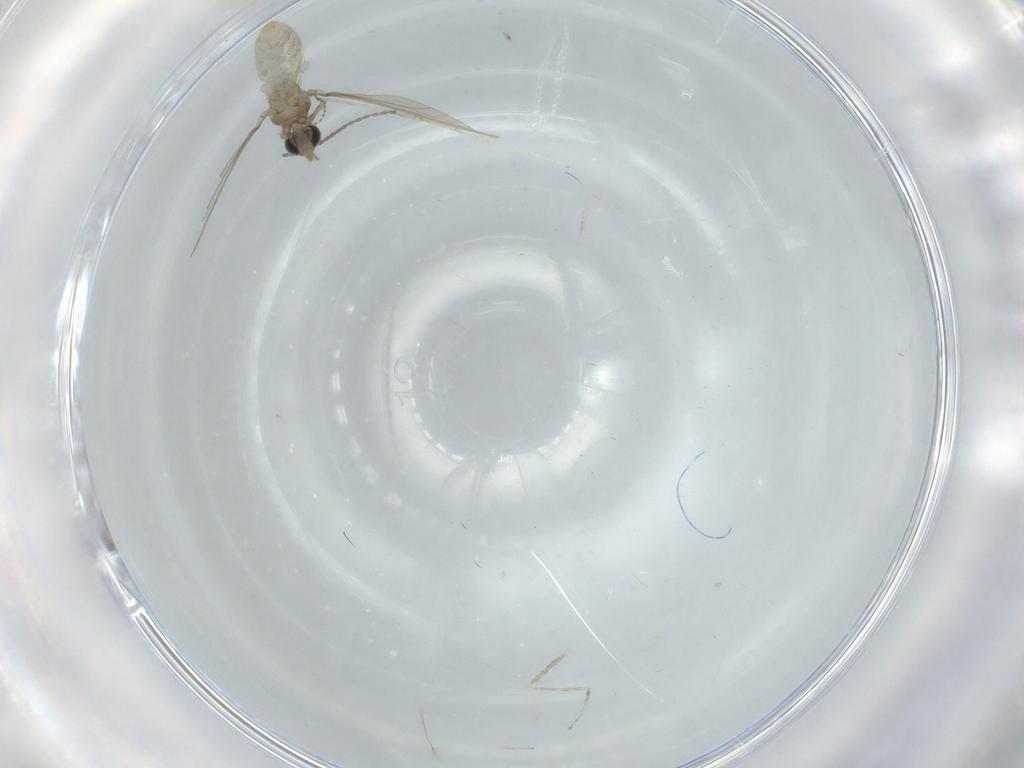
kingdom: Animalia
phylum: Arthropoda
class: Insecta
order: Diptera
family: Cecidomyiidae
